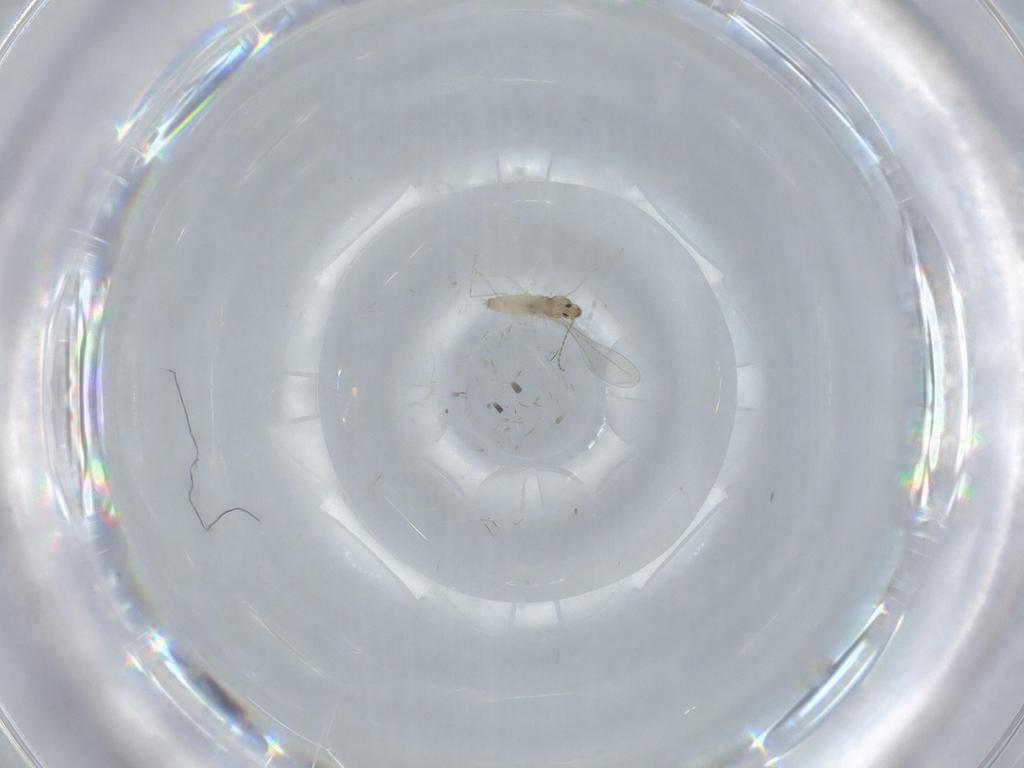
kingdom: Animalia
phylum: Arthropoda
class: Insecta
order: Diptera
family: Cecidomyiidae
